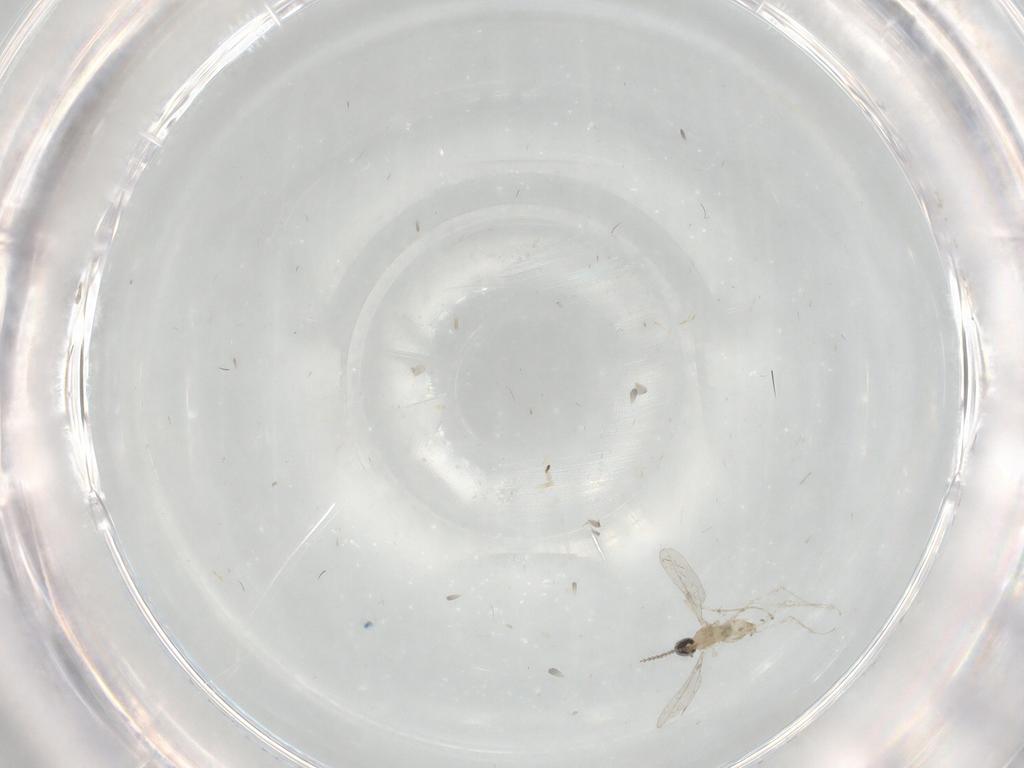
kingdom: Animalia
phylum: Arthropoda
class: Insecta
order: Diptera
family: Cecidomyiidae
